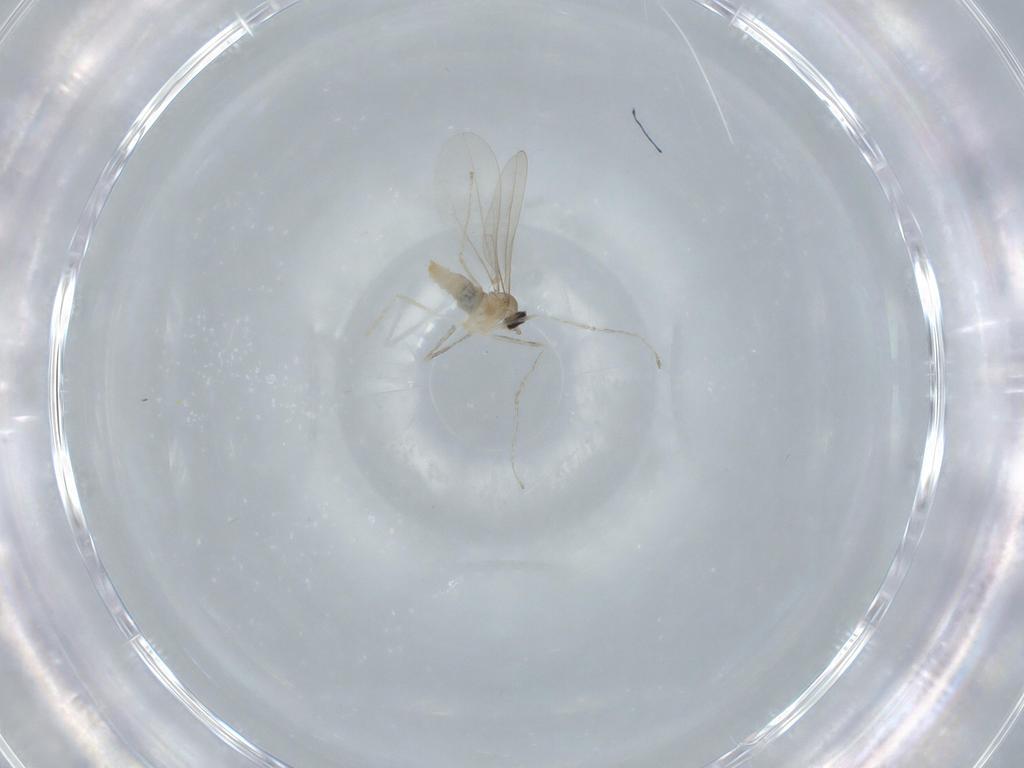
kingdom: Animalia
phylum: Arthropoda
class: Insecta
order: Diptera
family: Cecidomyiidae
